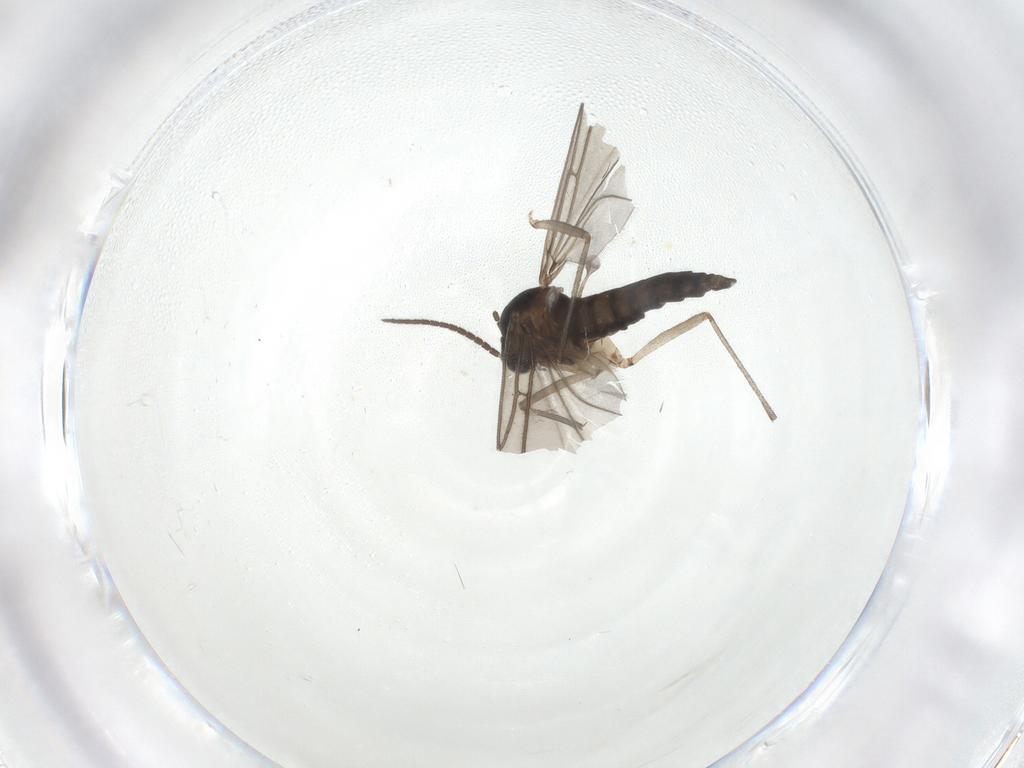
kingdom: Animalia
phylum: Arthropoda
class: Insecta
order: Diptera
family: Sciaridae
